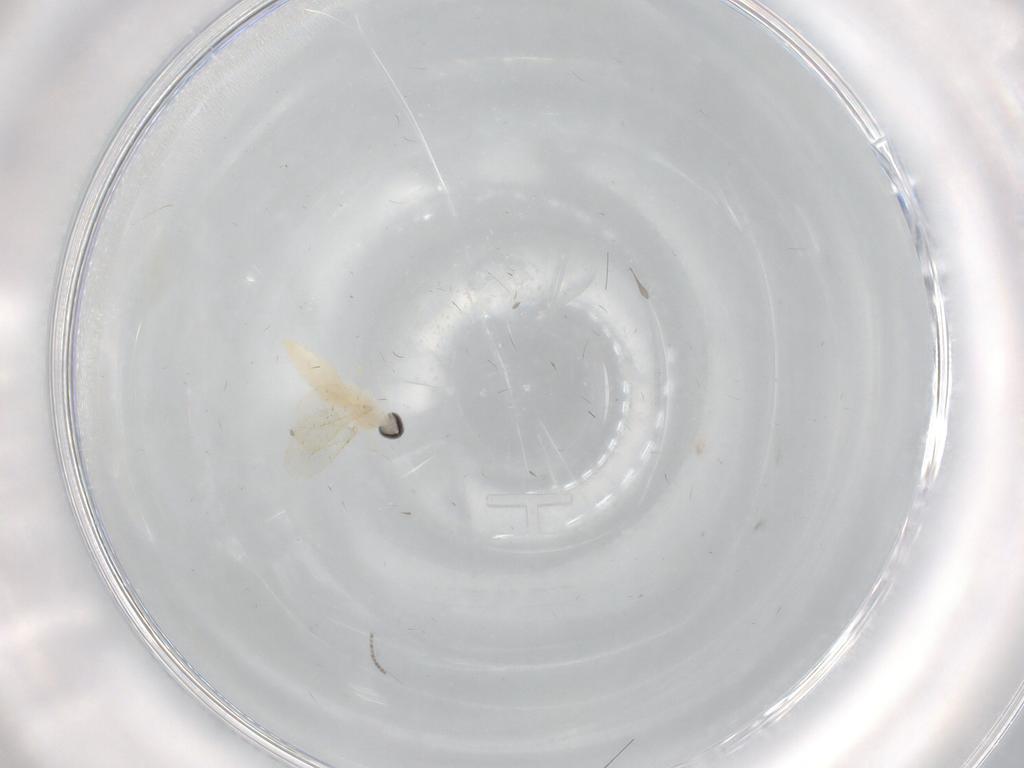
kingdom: Animalia
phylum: Arthropoda
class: Insecta
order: Diptera
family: Cecidomyiidae
